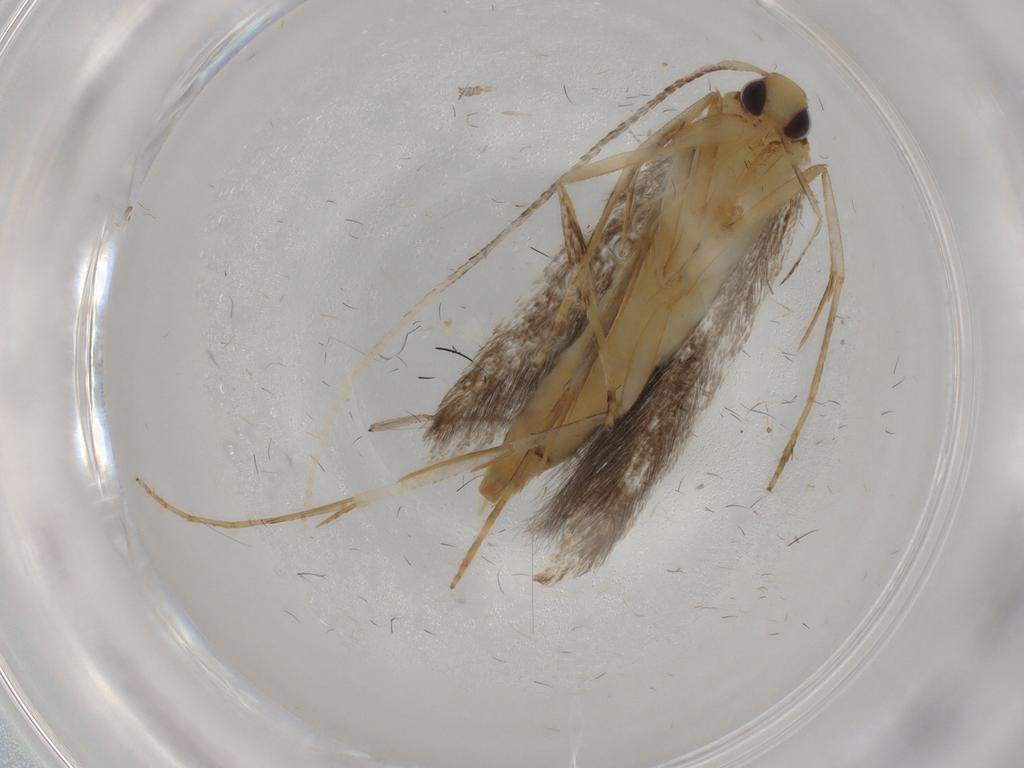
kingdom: Animalia
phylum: Arthropoda
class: Insecta
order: Lepidoptera
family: Pterolonchidae
